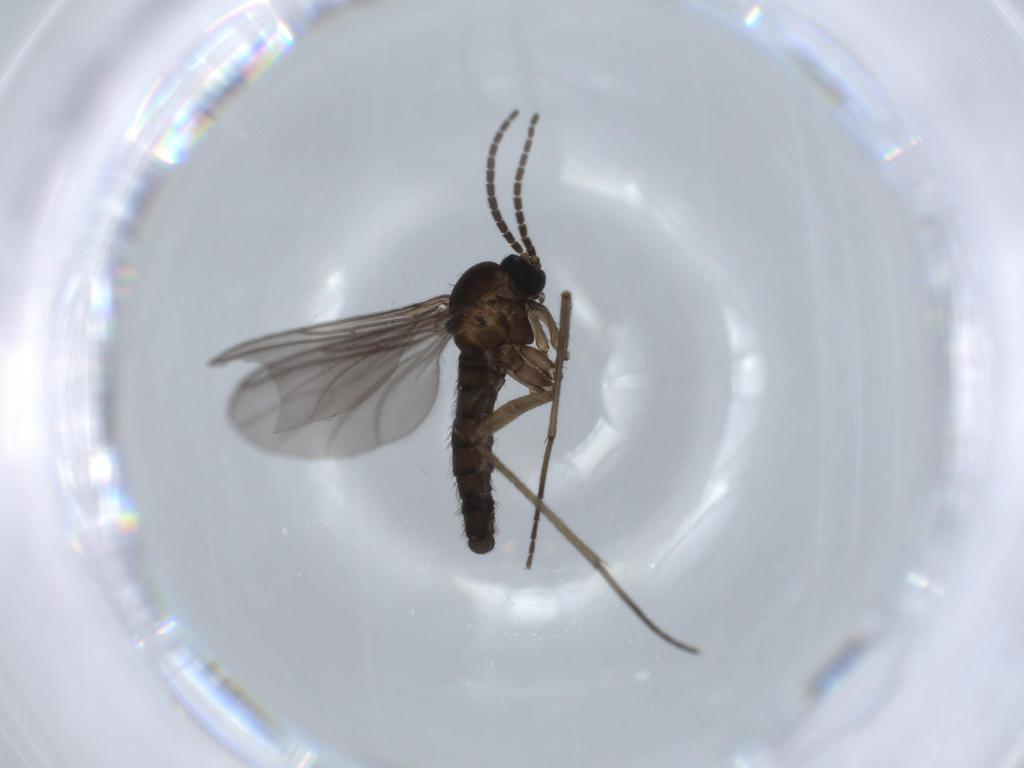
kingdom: Animalia
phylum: Arthropoda
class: Insecta
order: Diptera
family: Sciaridae
